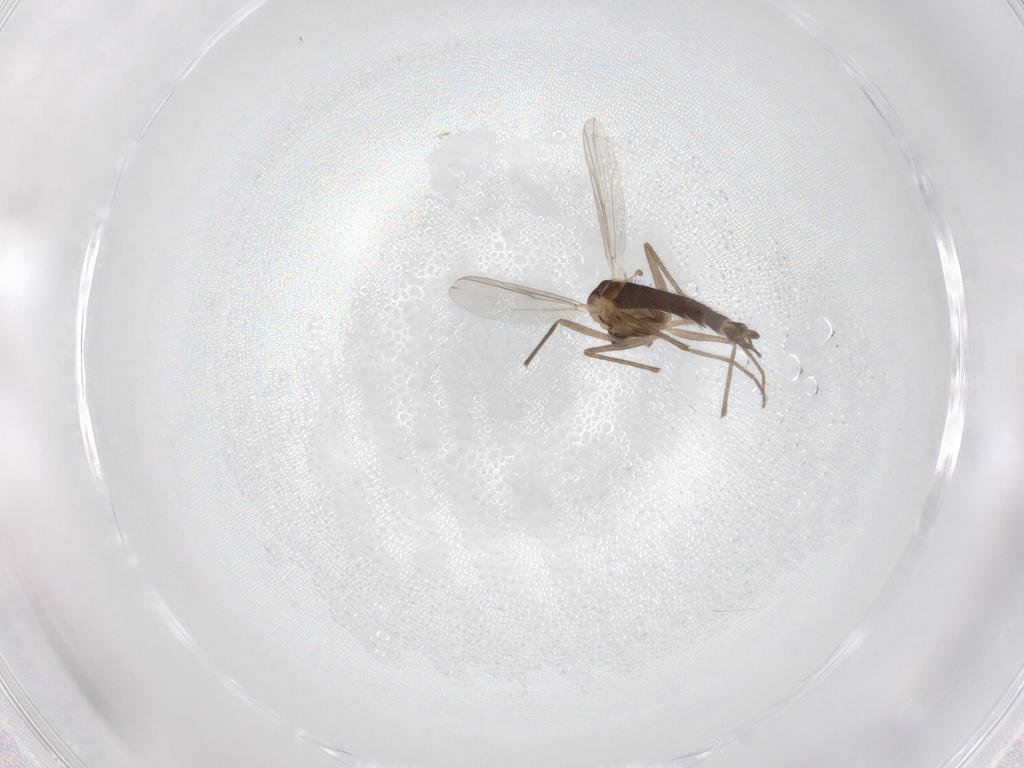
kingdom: Animalia
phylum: Arthropoda
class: Insecta
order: Diptera
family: Chironomidae
